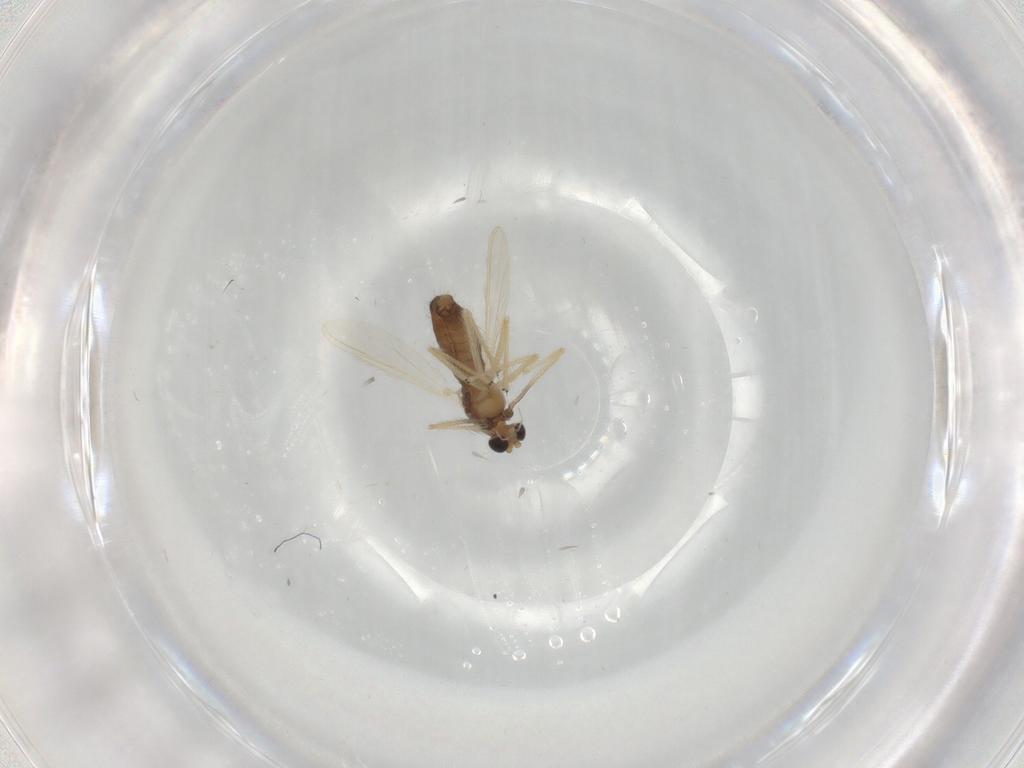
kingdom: Animalia
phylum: Arthropoda
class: Insecta
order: Diptera
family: Chironomidae
